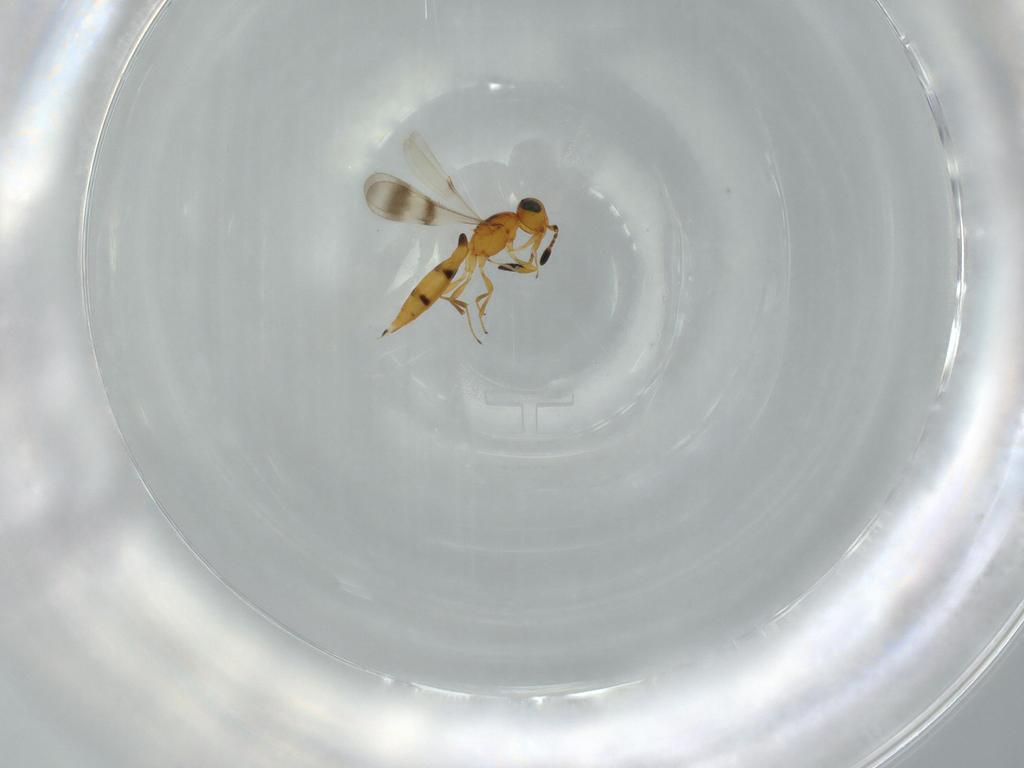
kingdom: Animalia
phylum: Arthropoda
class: Insecta
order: Hymenoptera
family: Scelionidae
